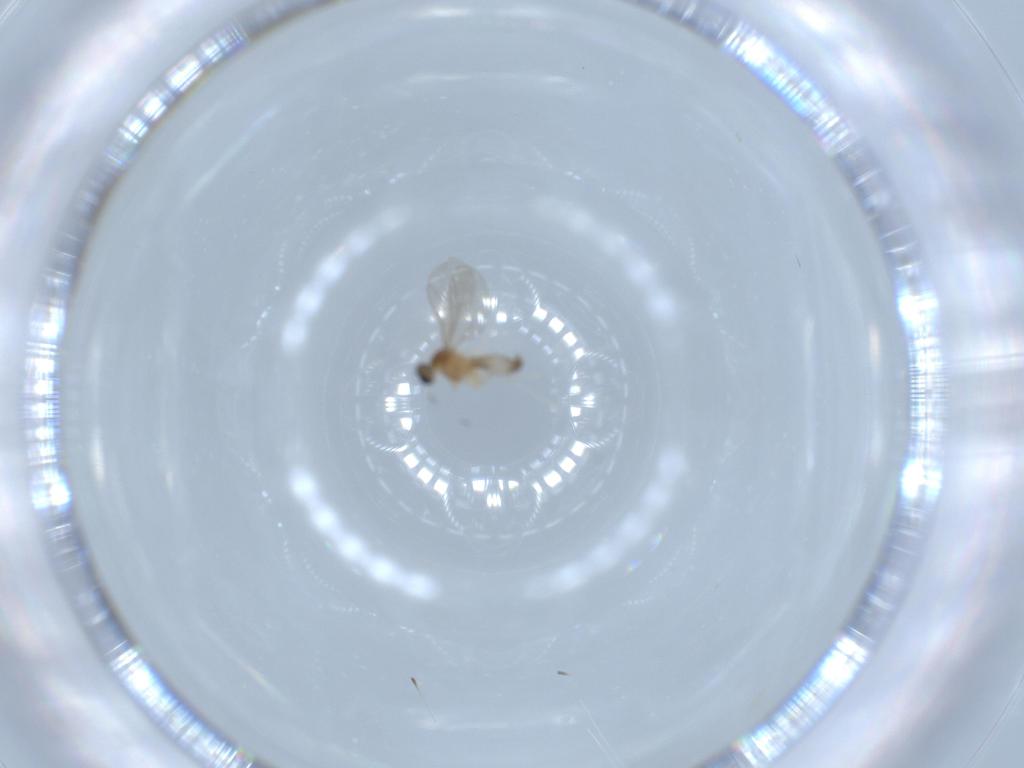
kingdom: Animalia
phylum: Arthropoda
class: Insecta
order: Diptera
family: Chironomidae
